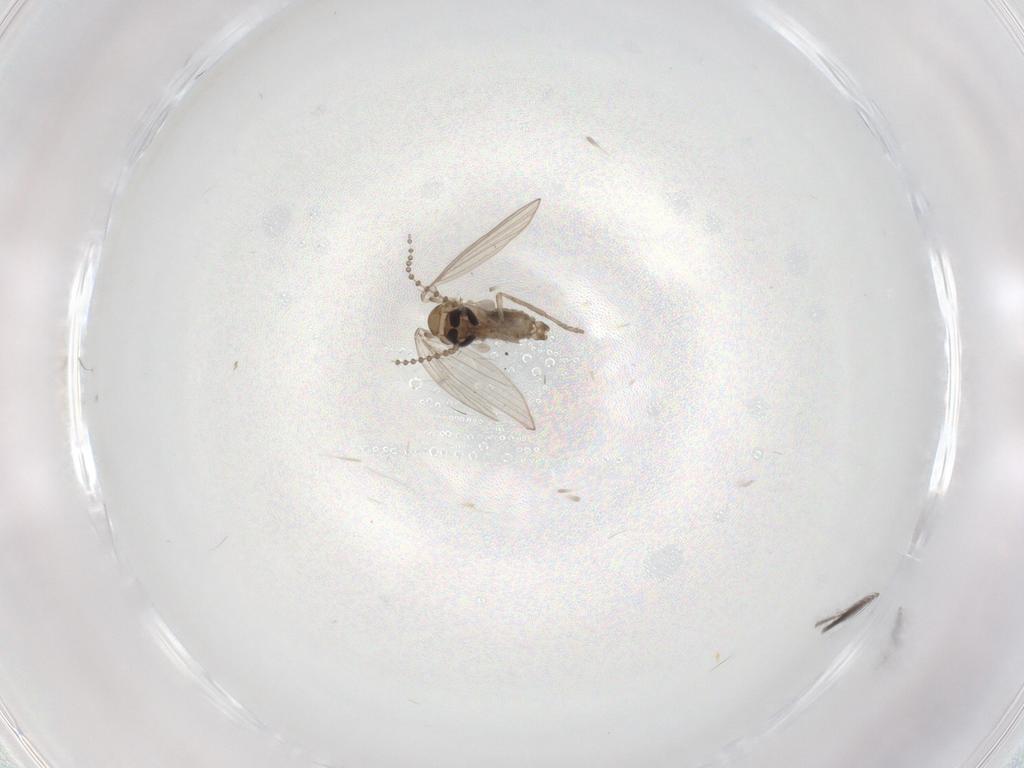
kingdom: Animalia
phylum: Arthropoda
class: Insecta
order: Diptera
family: Psychodidae
